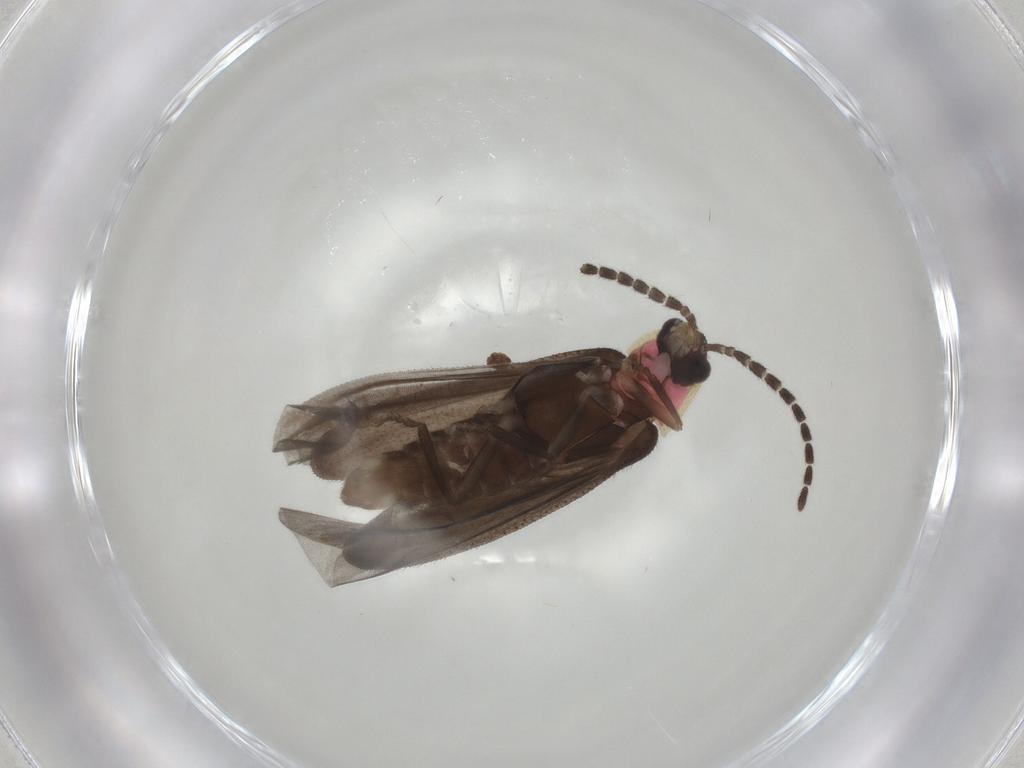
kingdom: Animalia
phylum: Arthropoda
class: Insecta
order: Coleoptera
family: Lampyridae
